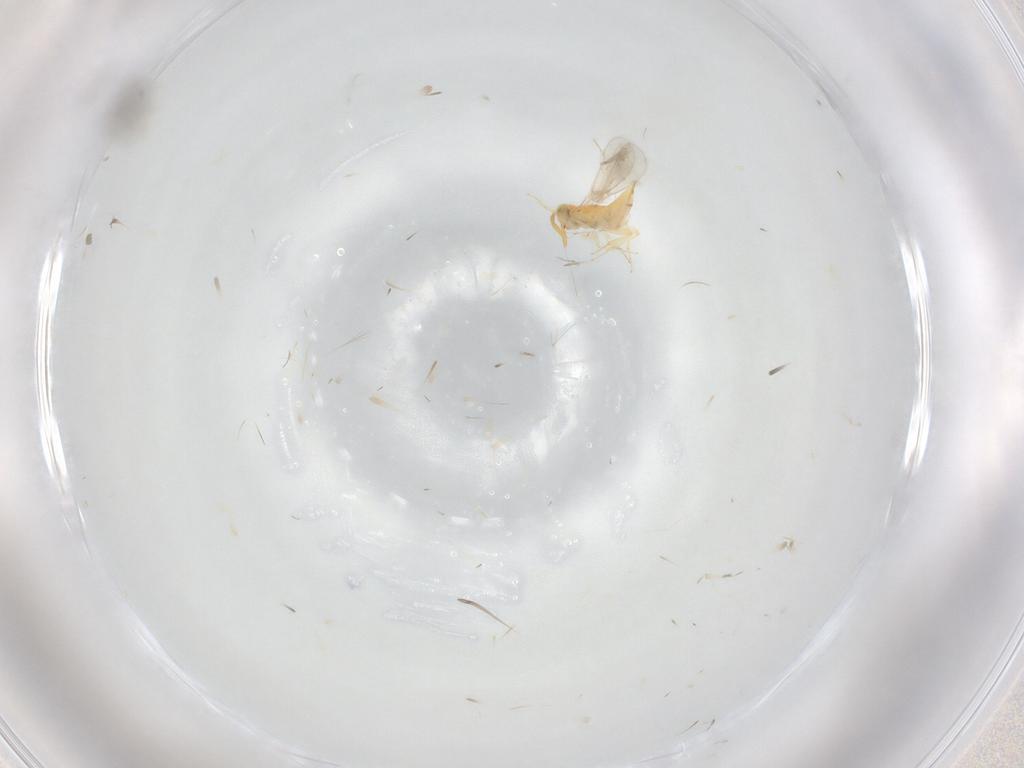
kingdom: Animalia
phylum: Arthropoda
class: Insecta
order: Hymenoptera
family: Encyrtidae
